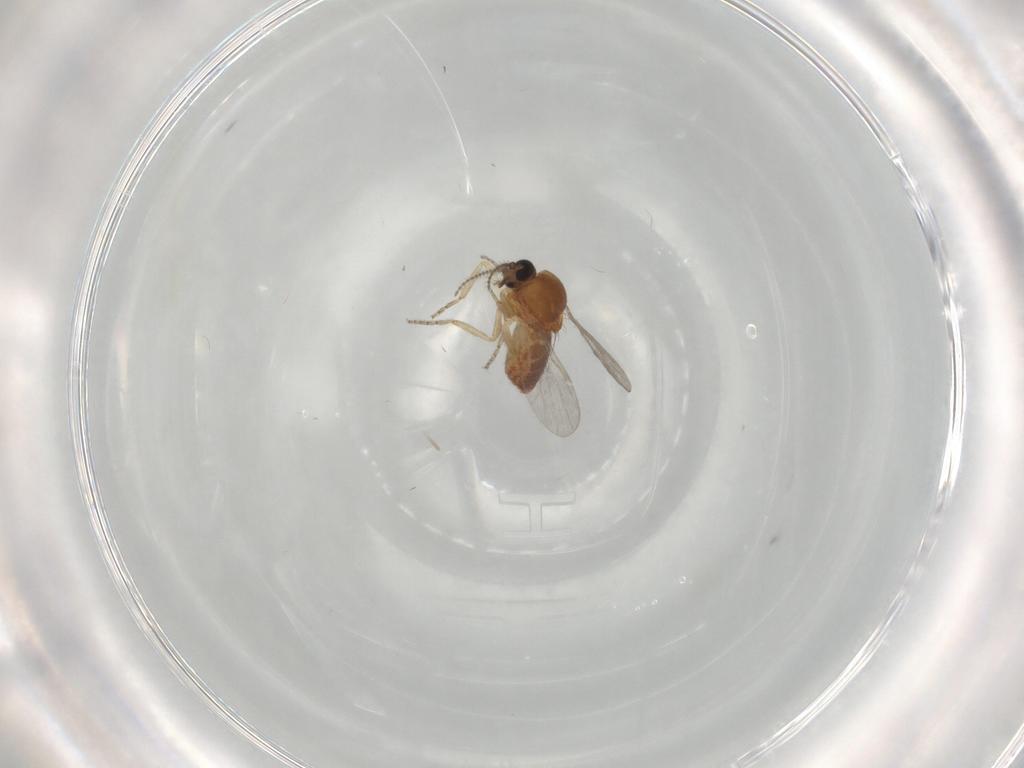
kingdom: Animalia
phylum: Arthropoda
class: Insecta
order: Diptera
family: Ceratopogonidae
